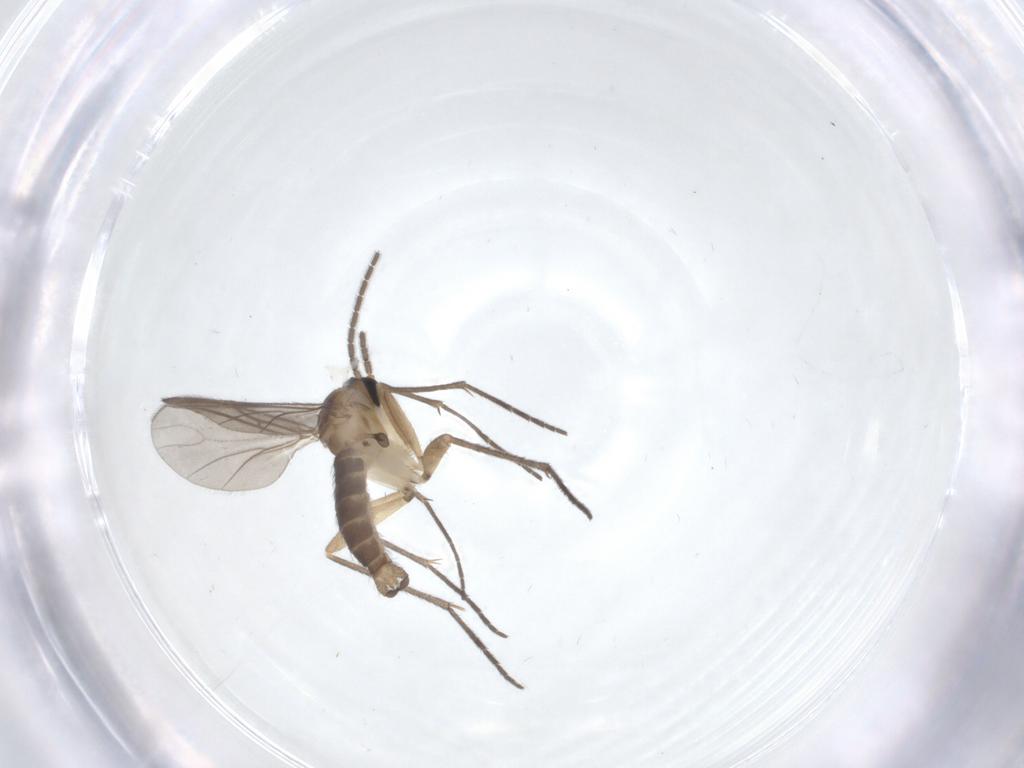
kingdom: Animalia
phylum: Arthropoda
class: Insecta
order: Diptera
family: Sciaridae
